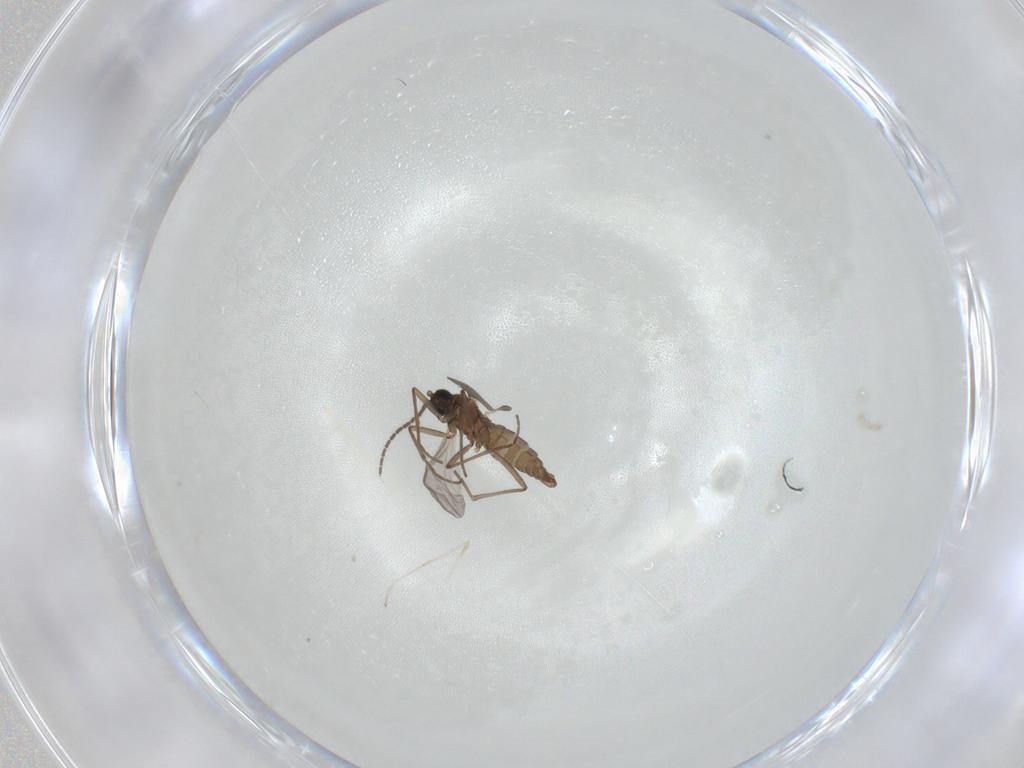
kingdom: Animalia
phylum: Arthropoda
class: Insecta
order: Diptera
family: Sciaridae
